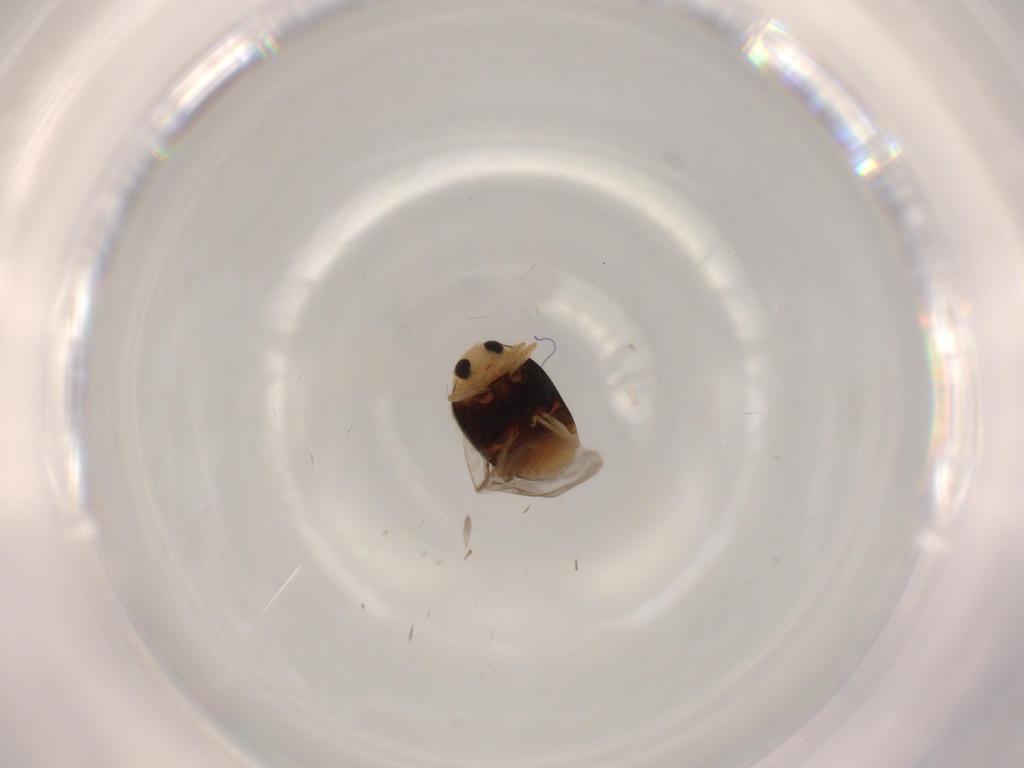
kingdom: Animalia
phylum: Arthropoda
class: Insecta
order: Coleoptera
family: Coccinellidae
